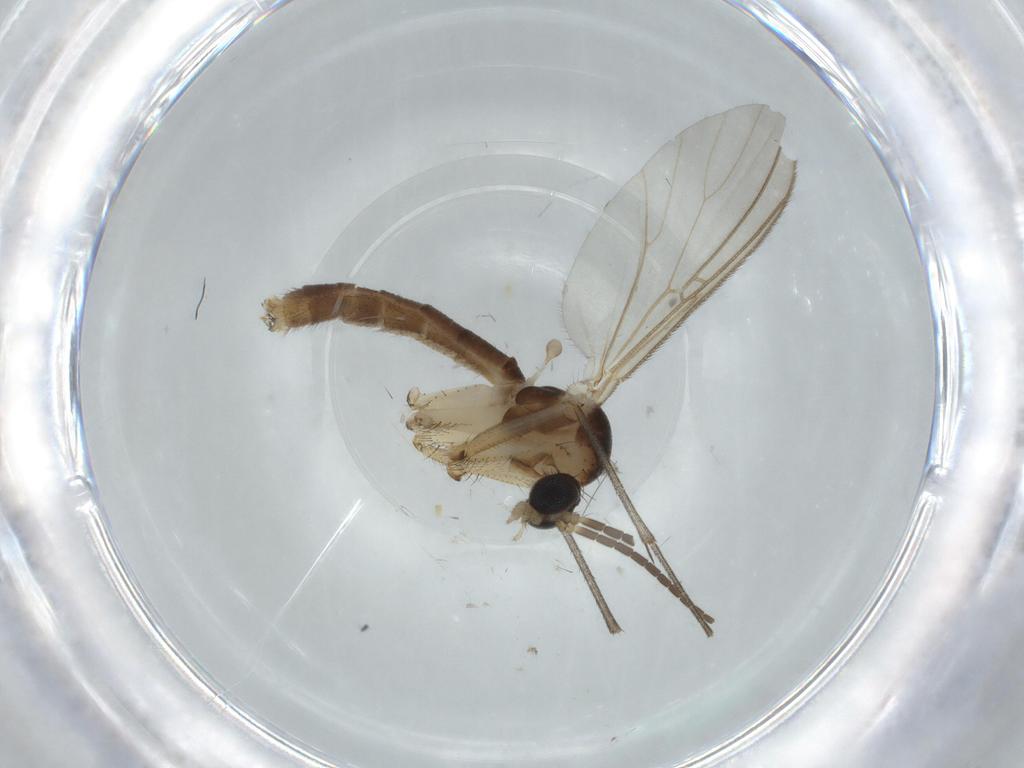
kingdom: Animalia
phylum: Arthropoda
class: Insecta
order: Diptera
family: Mycetophilidae
